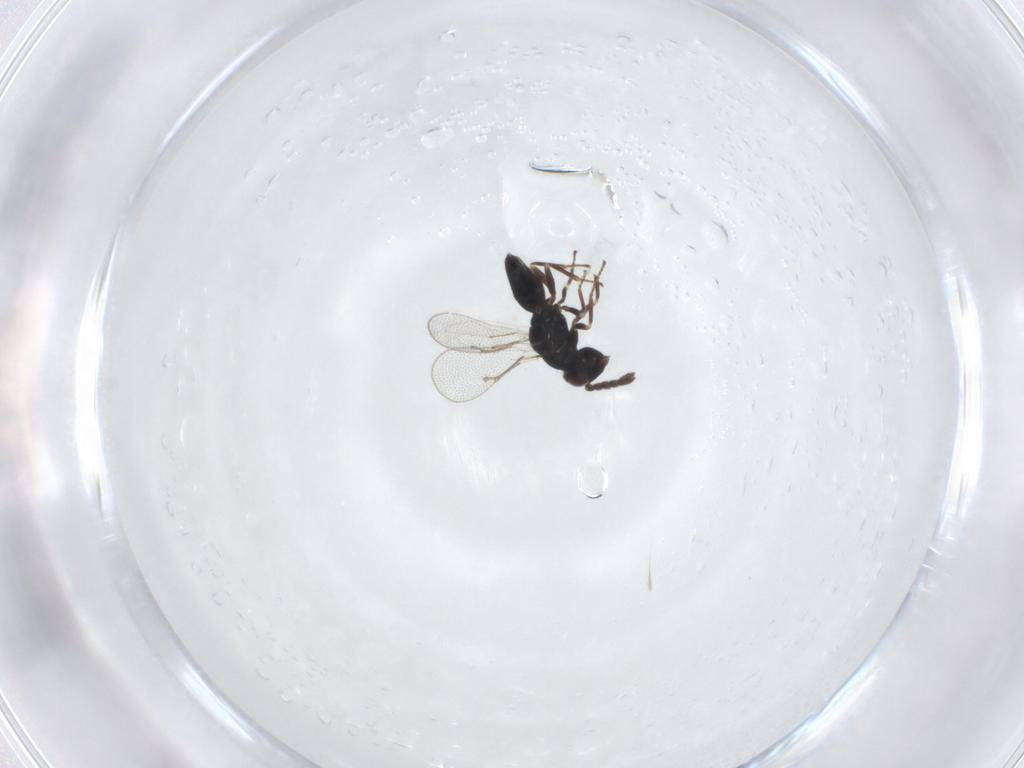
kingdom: Animalia
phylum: Arthropoda
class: Insecta
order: Hymenoptera
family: Eulophidae
